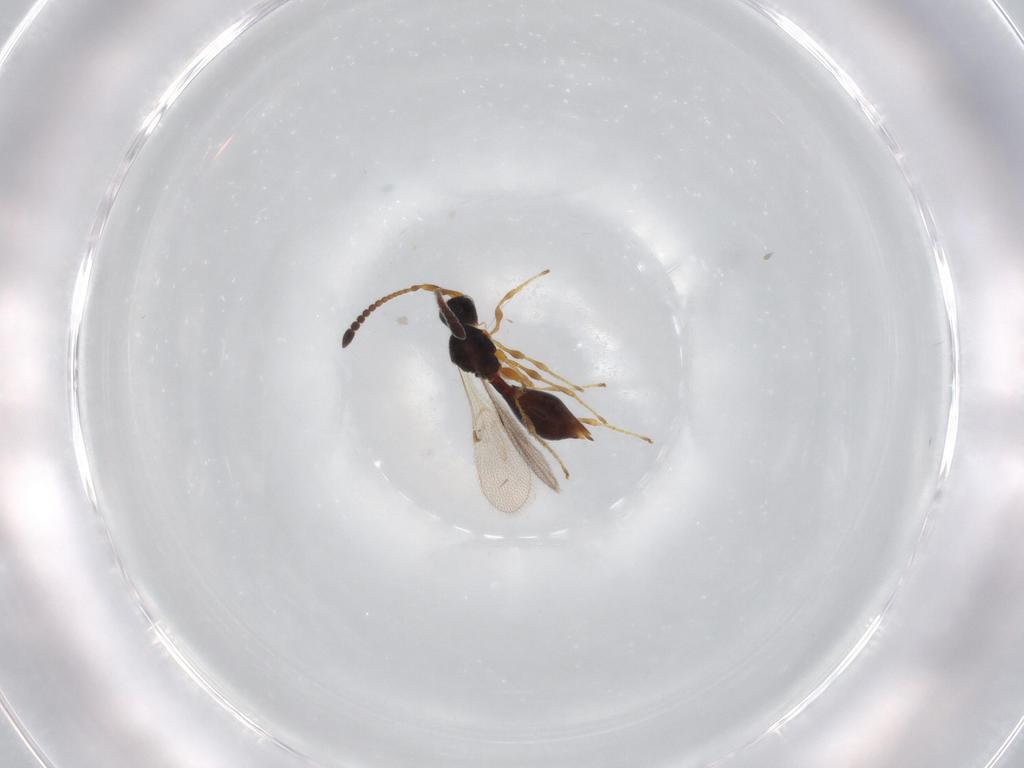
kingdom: Animalia
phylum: Arthropoda
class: Insecta
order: Hymenoptera
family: Diapriidae
